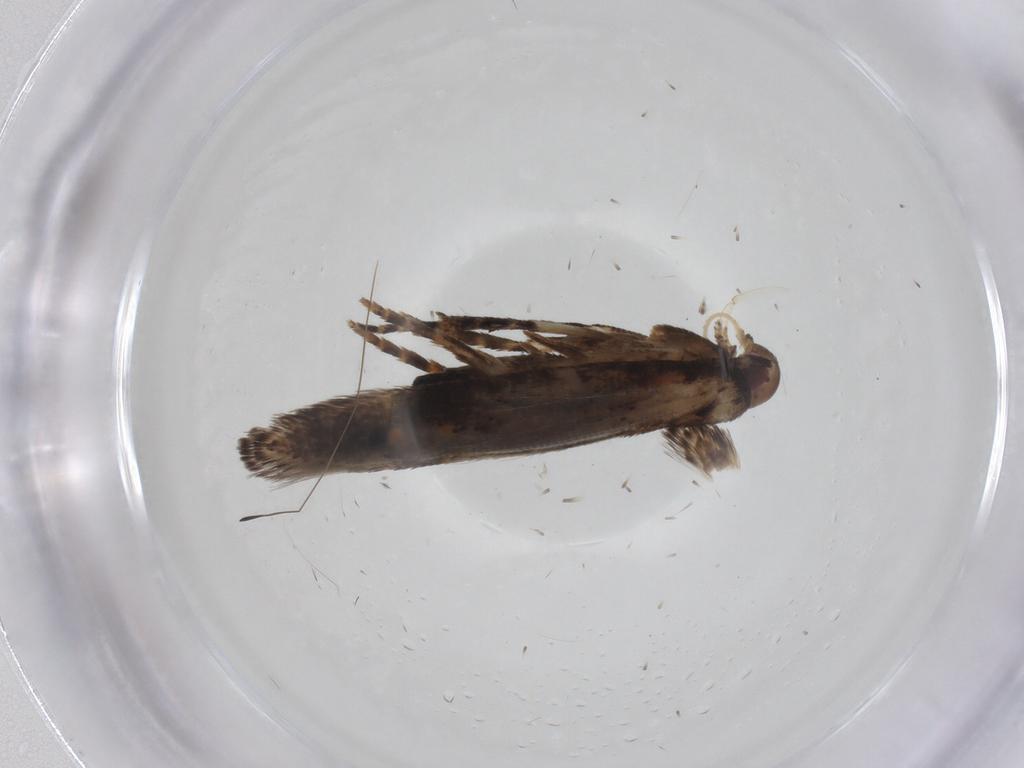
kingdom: Animalia
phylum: Arthropoda
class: Insecta
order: Lepidoptera
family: Elachistidae
